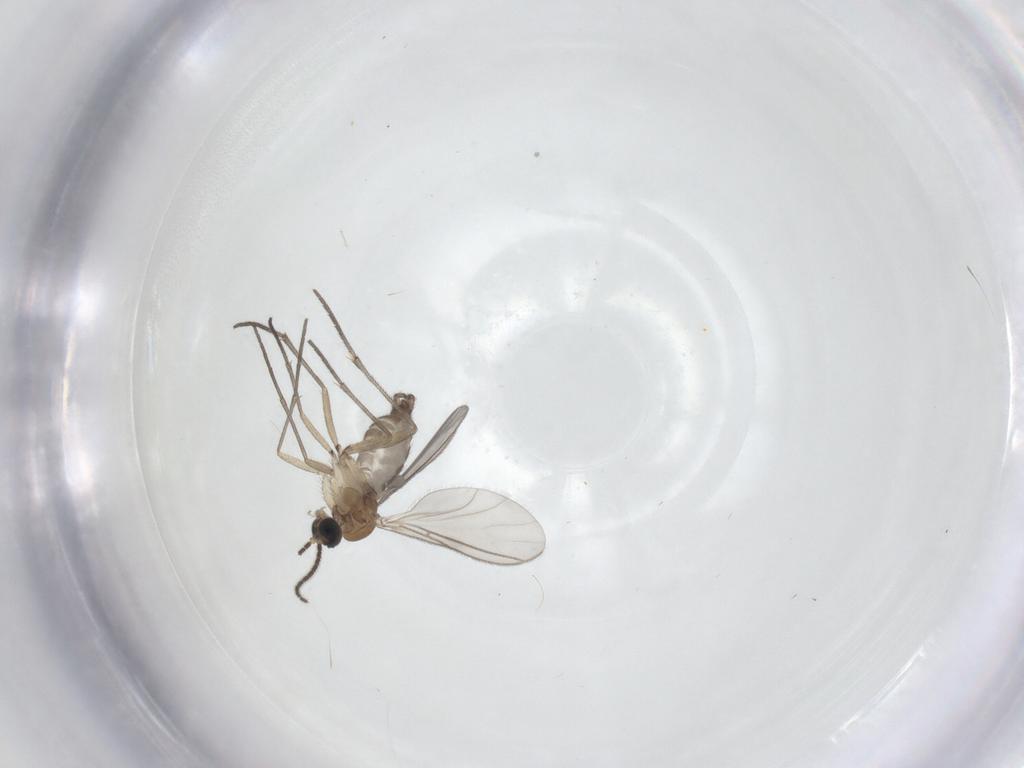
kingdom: Animalia
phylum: Arthropoda
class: Insecta
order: Diptera
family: Sciaridae
